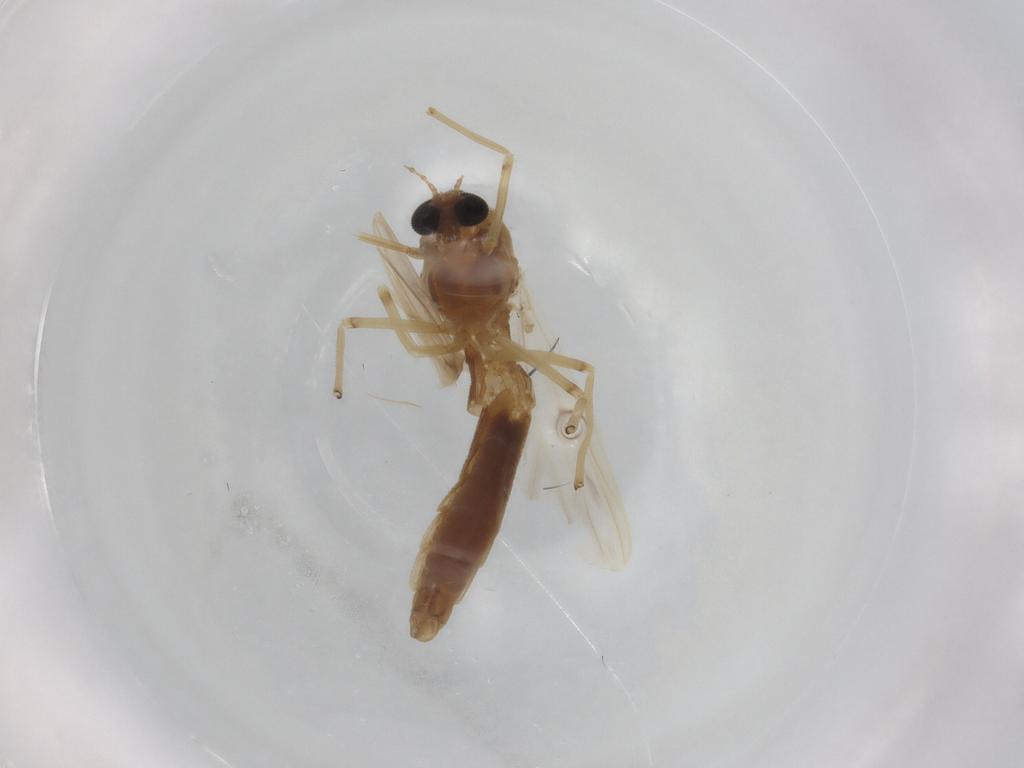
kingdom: Animalia
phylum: Arthropoda
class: Insecta
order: Diptera
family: Chironomidae
